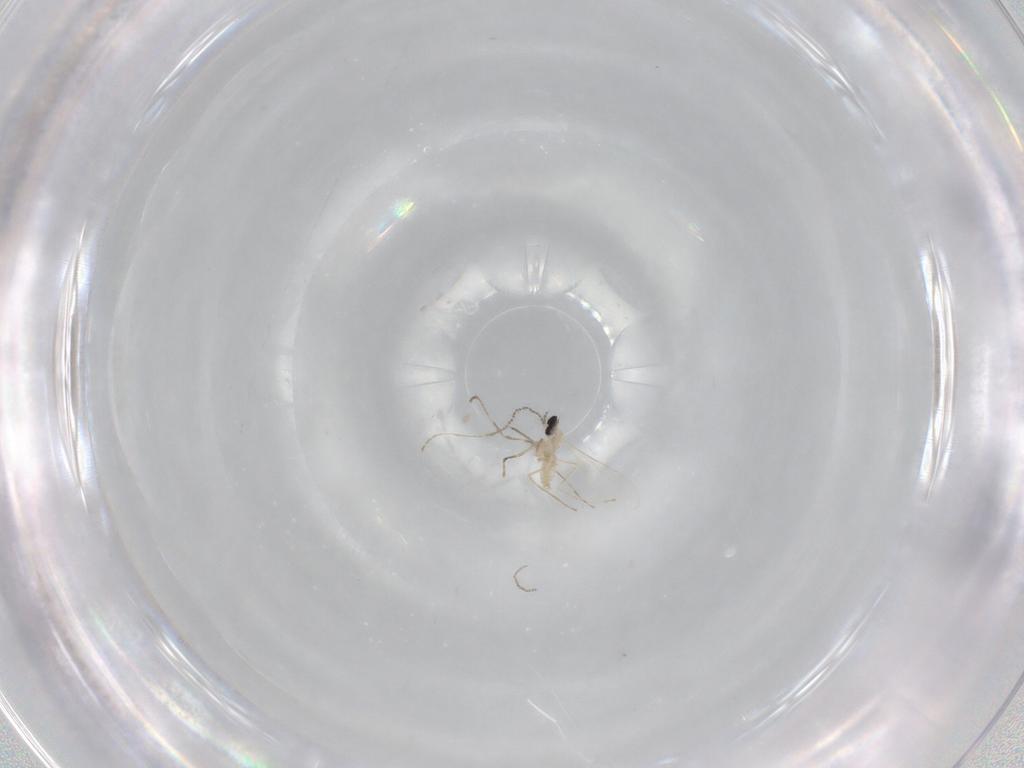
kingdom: Animalia
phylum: Arthropoda
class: Insecta
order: Diptera
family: Cecidomyiidae
